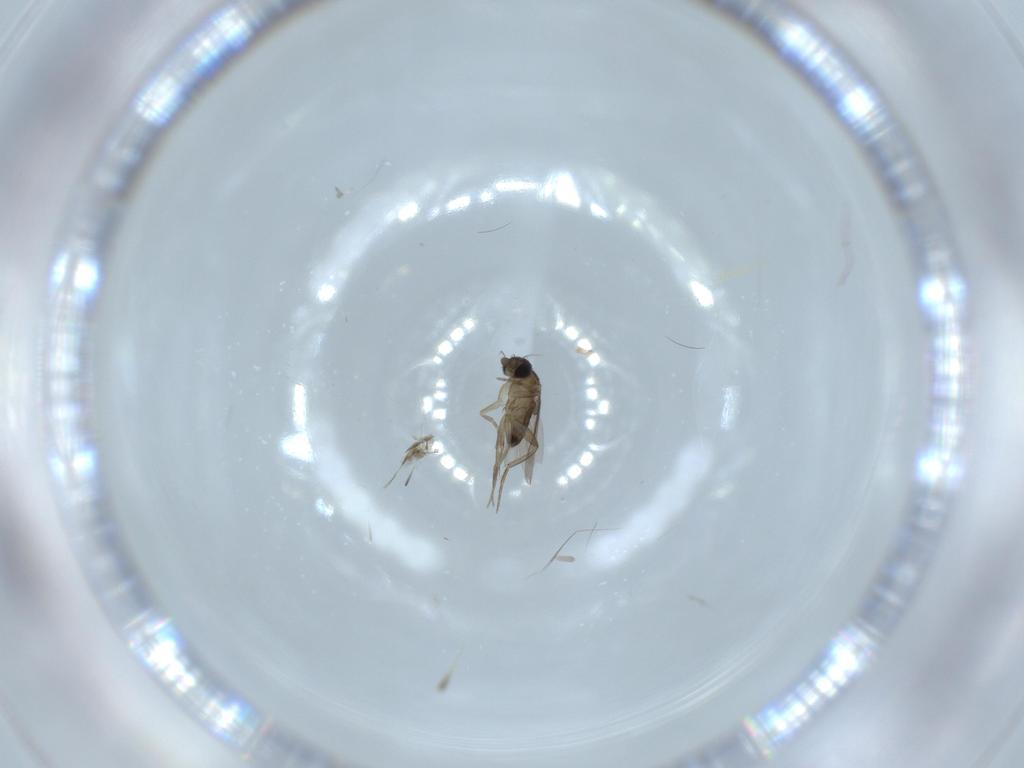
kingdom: Animalia
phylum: Arthropoda
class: Insecta
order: Diptera
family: Phoridae
